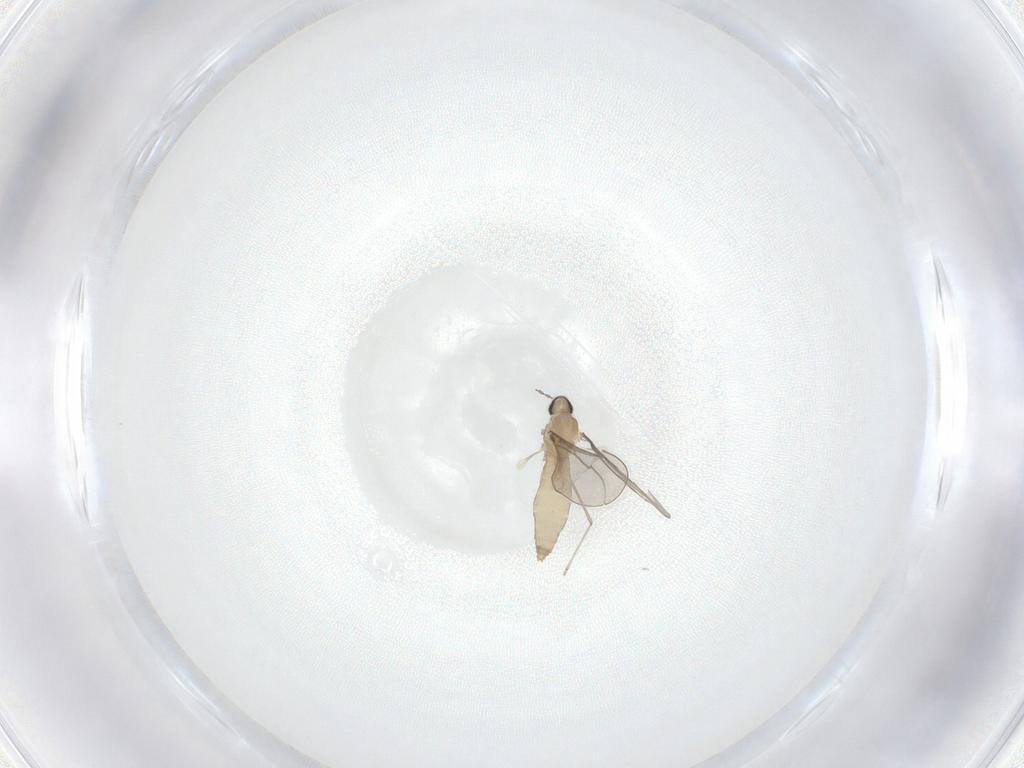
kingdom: Animalia
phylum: Arthropoda
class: Insecta
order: Diptera
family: Cecidomyiidae
